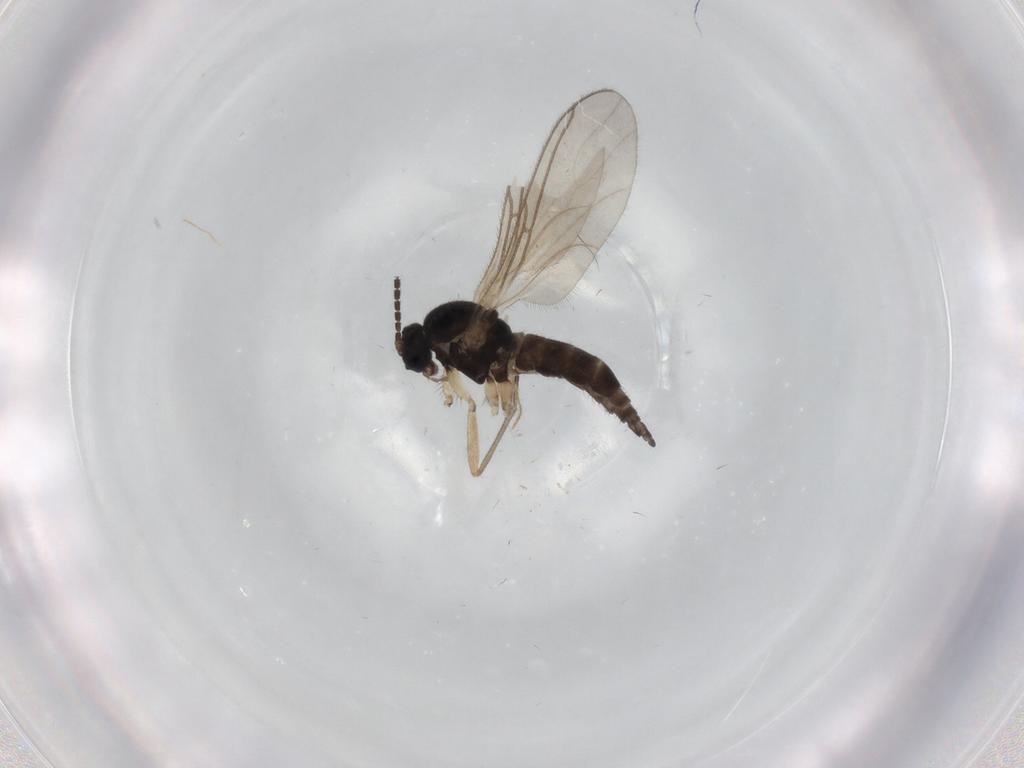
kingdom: Animalia
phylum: Arthropoda
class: Insecta
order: Diptera
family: Sciaridae
